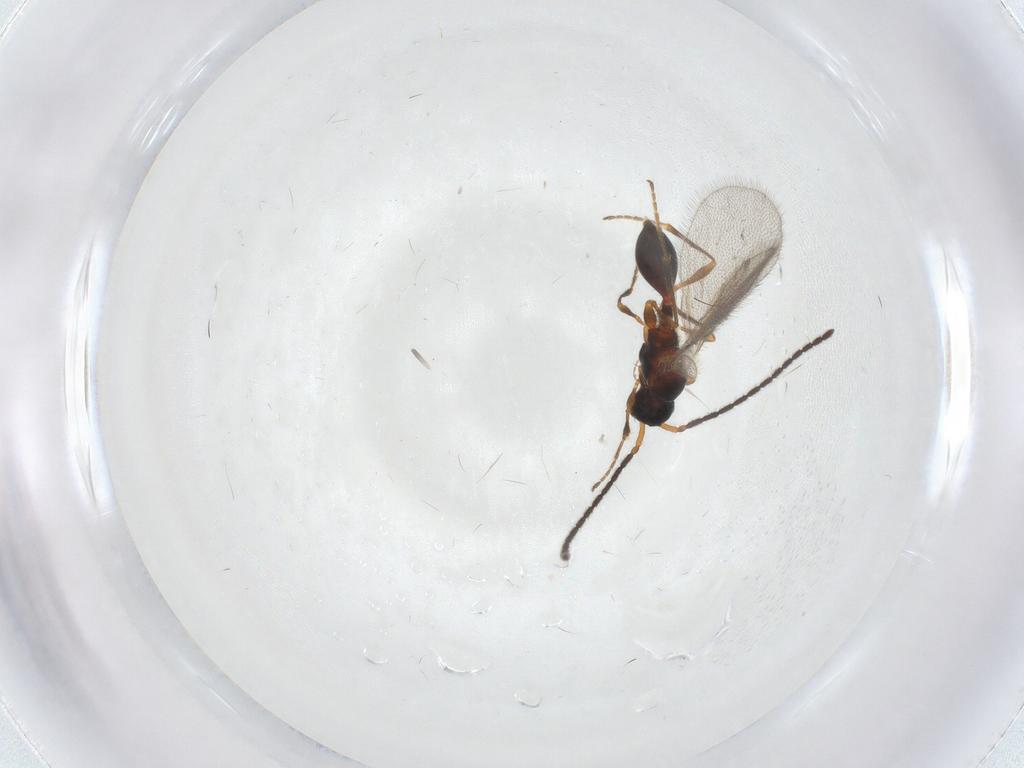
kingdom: Animalia
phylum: Arthropoda
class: Insecta
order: Hymenoptera
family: Diapriidae
